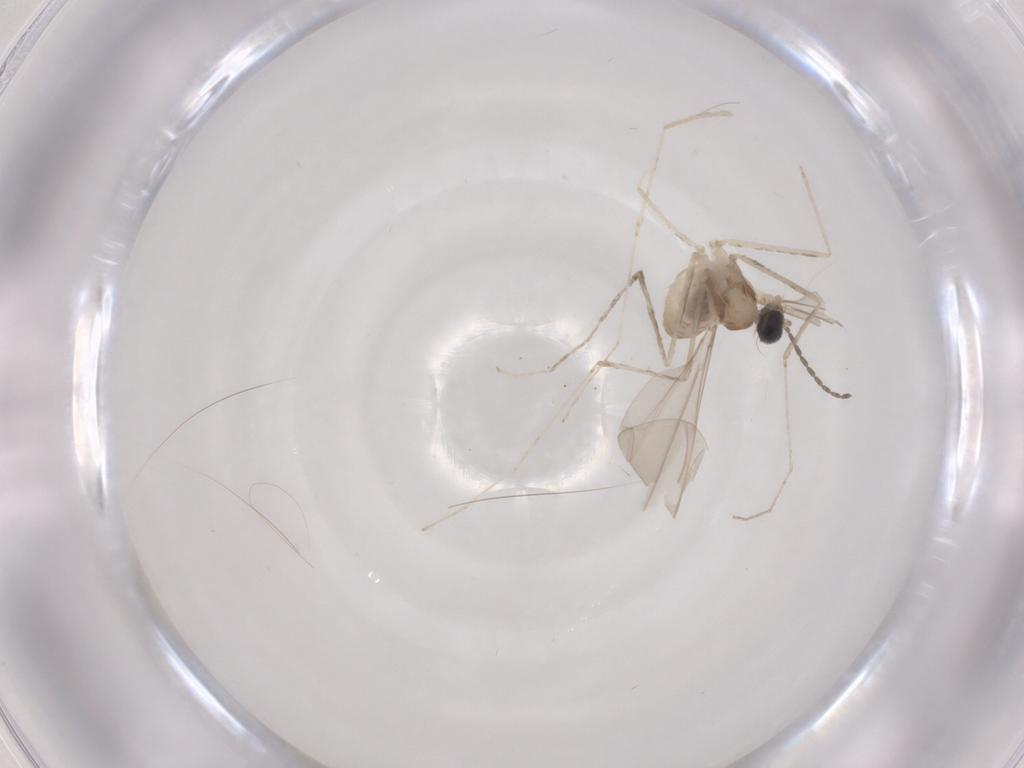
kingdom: Animalia
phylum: Arthropoda
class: Insecta
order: Diptera
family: Cecidomyiidae
